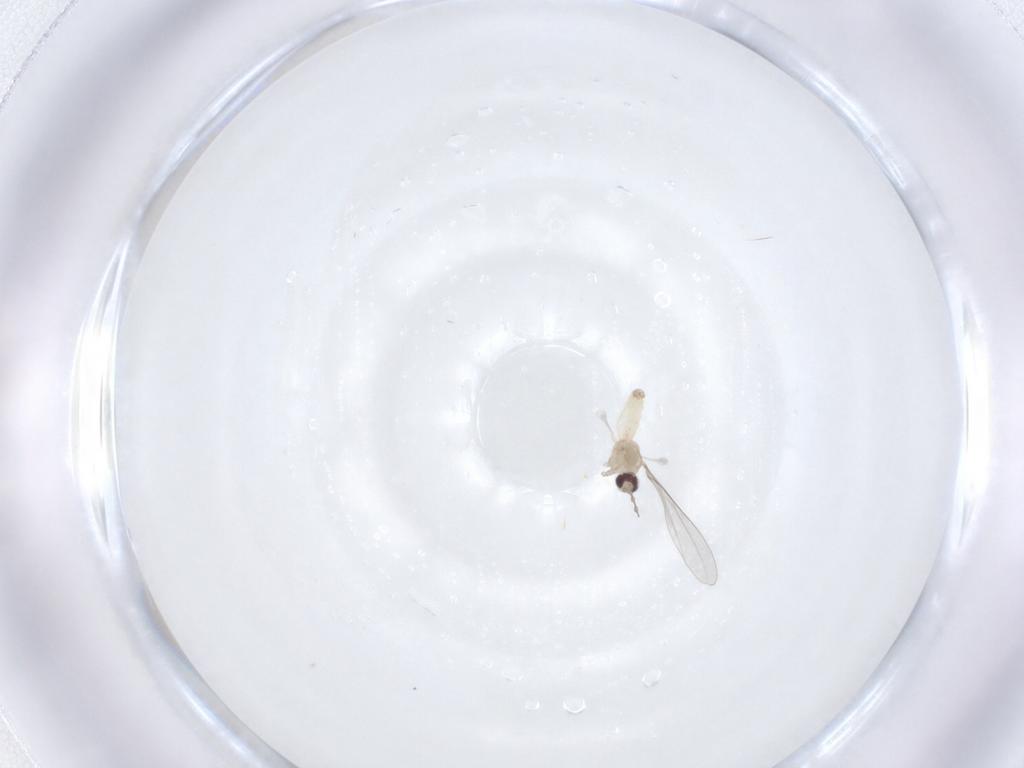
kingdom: Animalia
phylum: Arthropoda
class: Insecta
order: Diptera
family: Cecidomyiidae
